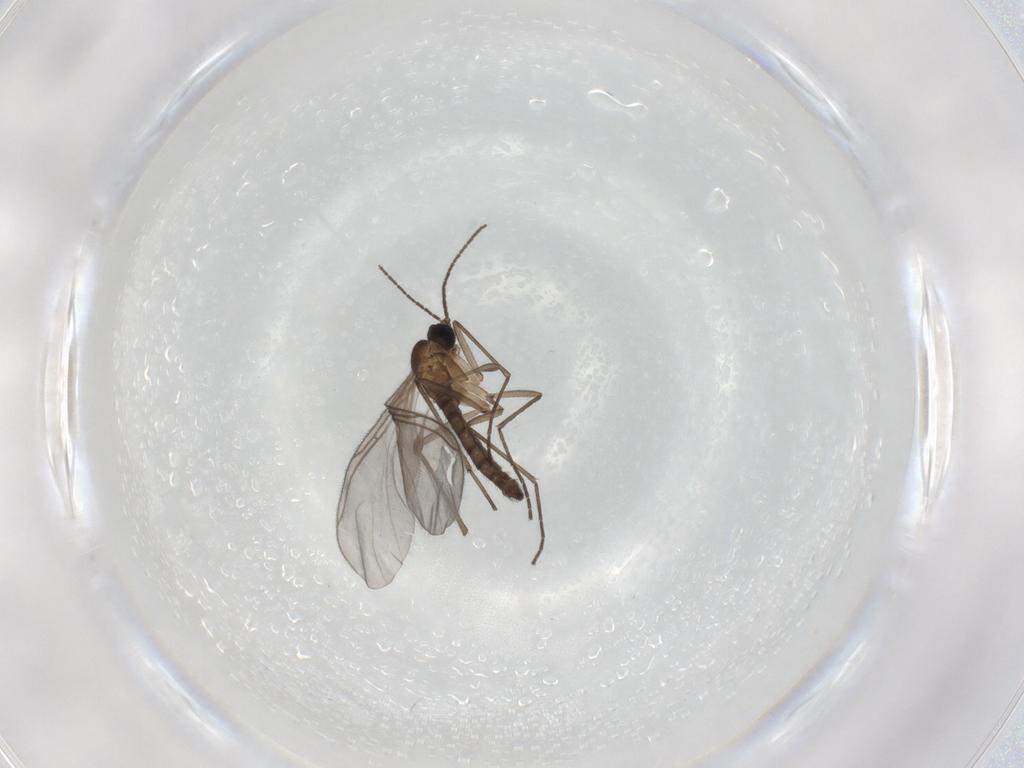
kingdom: Animalia
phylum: Arthropoda
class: Insecta
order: Diptera
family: Sciaridae
